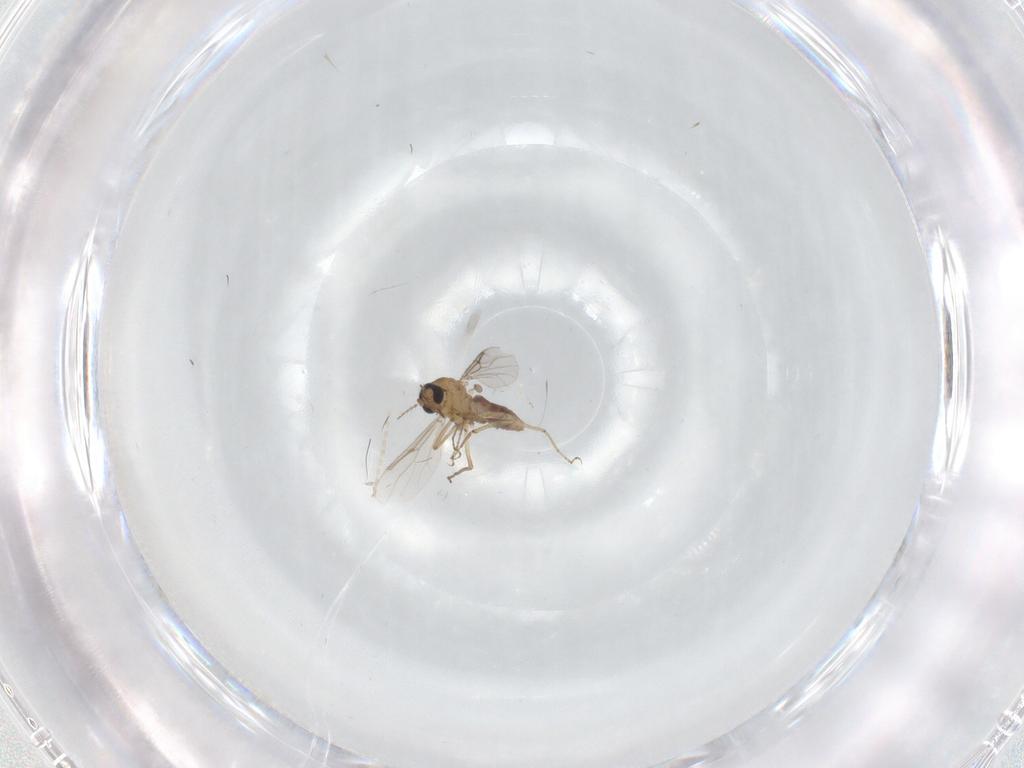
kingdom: Animalia
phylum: Arthropoda
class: Insecta
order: Diptera
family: Cecidomyiidae
